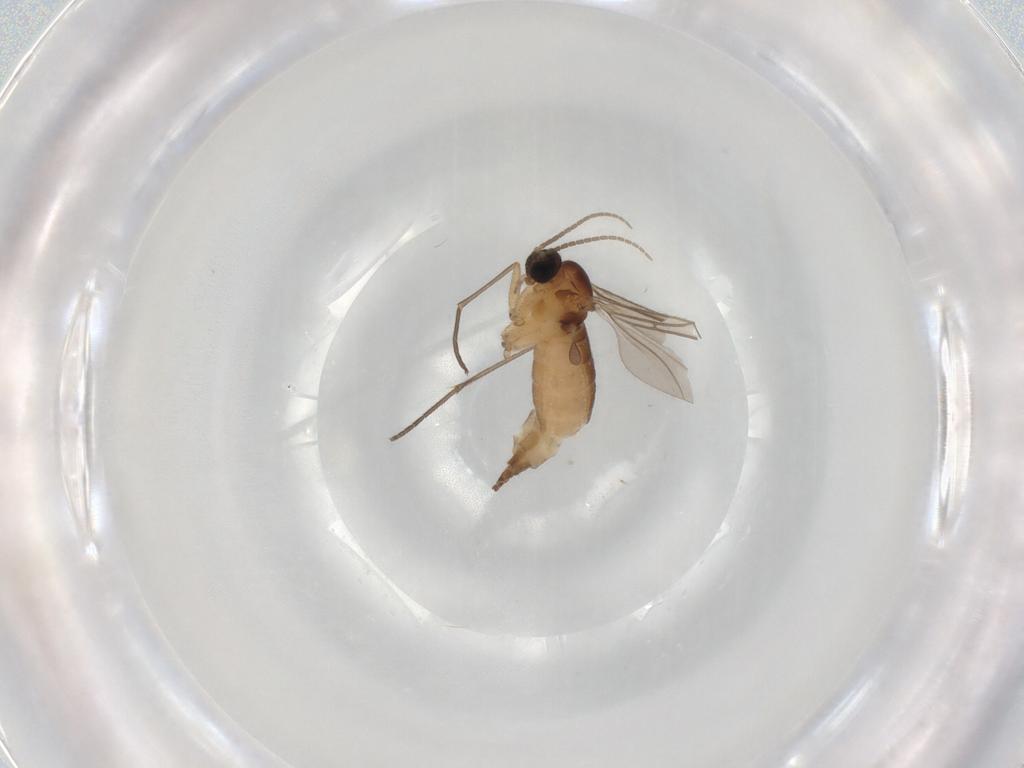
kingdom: Animalia
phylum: Arthropoda
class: Insecta
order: Diptera
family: Sciaridae
